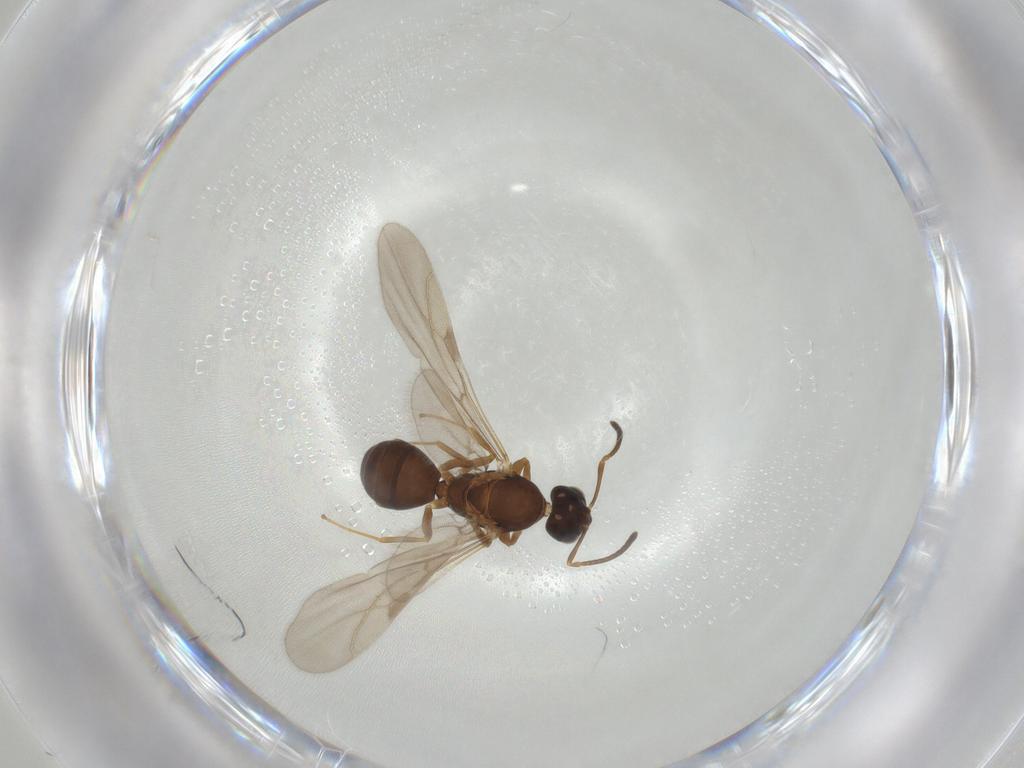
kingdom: Animalia
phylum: Arthropoda
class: Insecta
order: Hymenoptera
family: Formicidae
